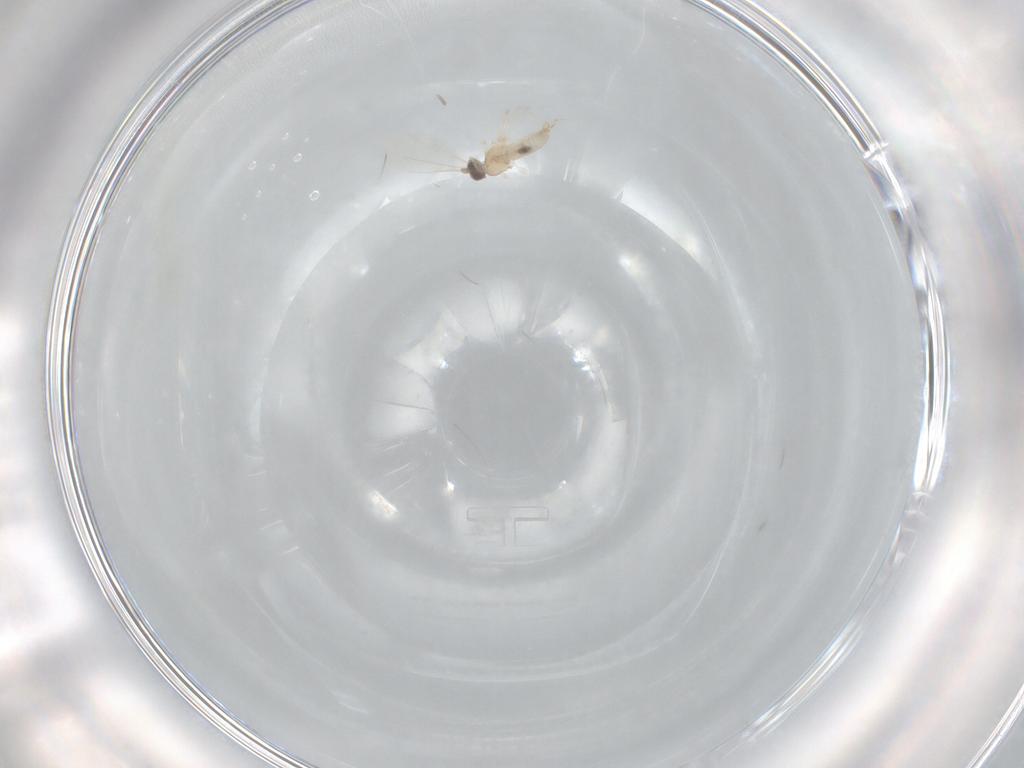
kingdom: Animalia
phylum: Arthropoda
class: Insecta
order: Diptera
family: Cecidomyiidae
